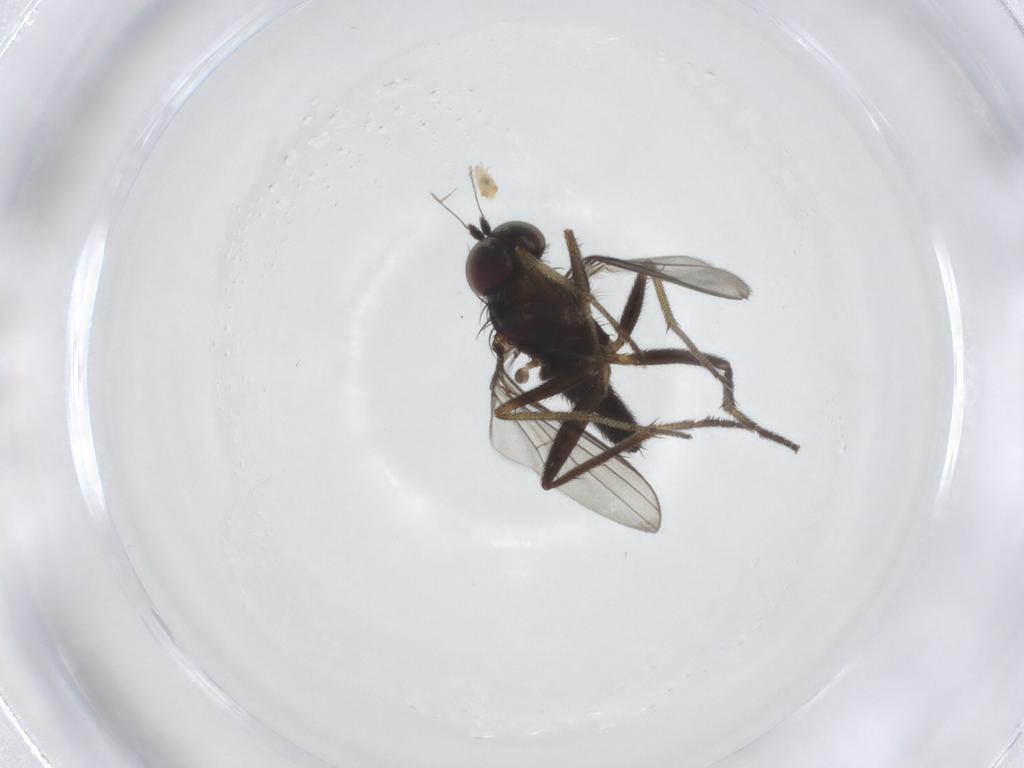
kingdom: Animalia
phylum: Arthropoda
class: Insecta
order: Diptera
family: Dolichopodidae
